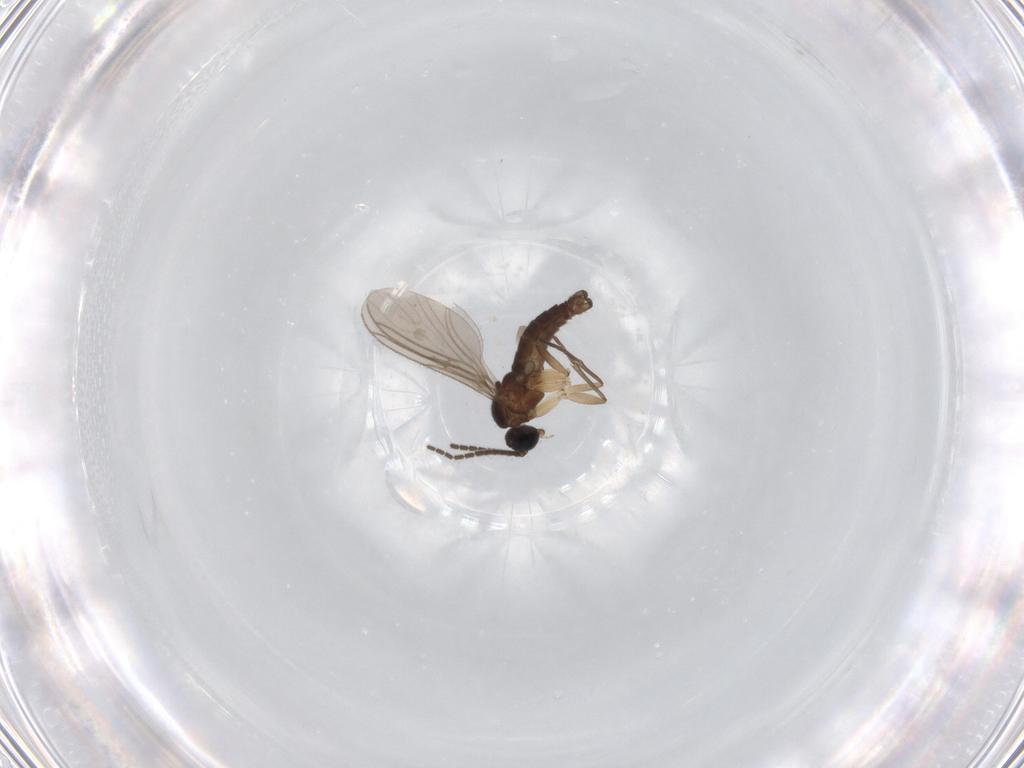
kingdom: Animalia
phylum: Arthropoda
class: Insecta
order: Diptera
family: Sciaridae
